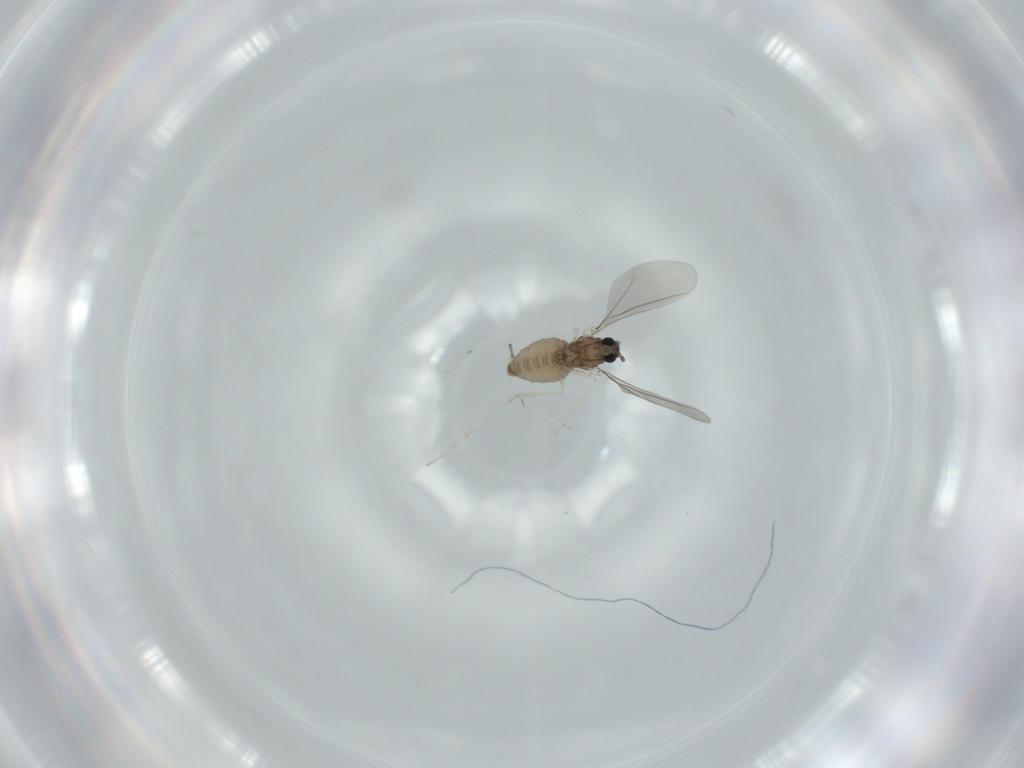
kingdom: Animalia
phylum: Arthropoda
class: Insecta
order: Diptera
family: Cecidomyiidae
